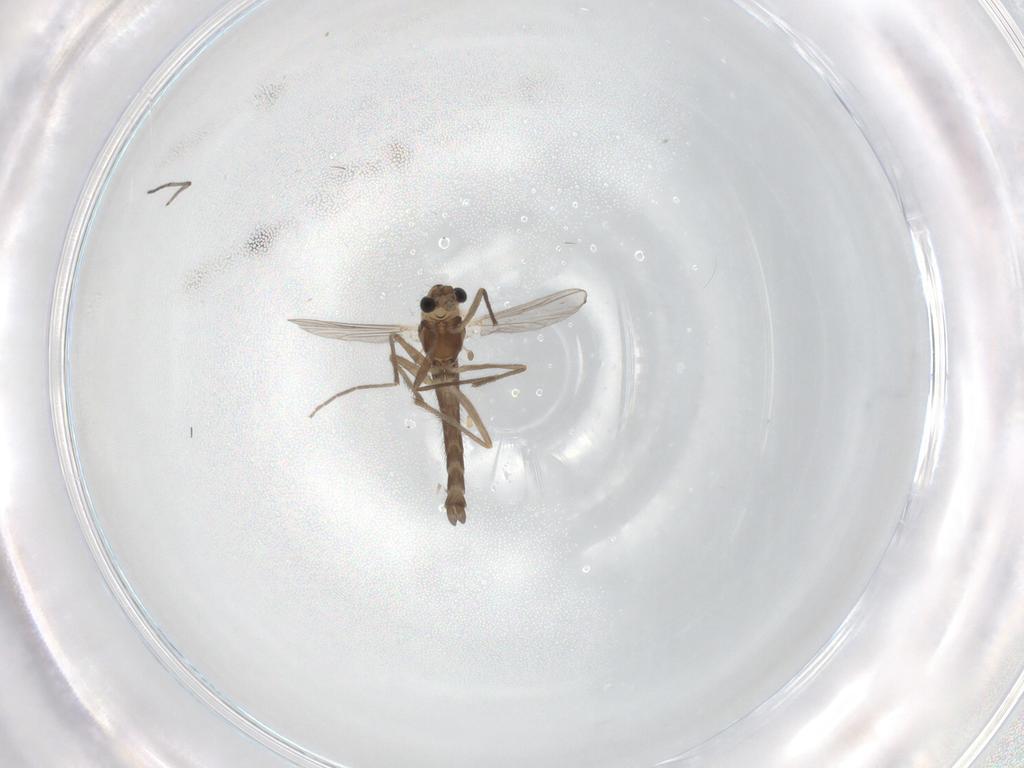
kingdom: Animalia
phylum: Arthropoda
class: Insecta
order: Diptera
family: Chironomidae
